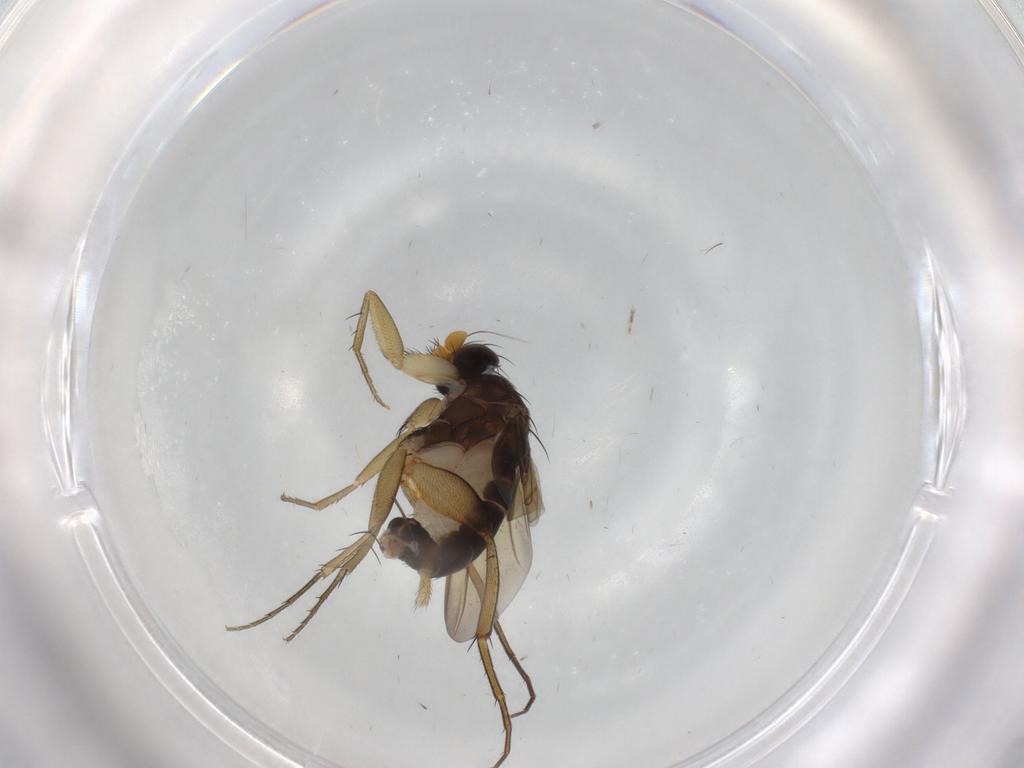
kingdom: Animalia
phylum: Arthropoda
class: Insecta
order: Diptera
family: Phoridae
